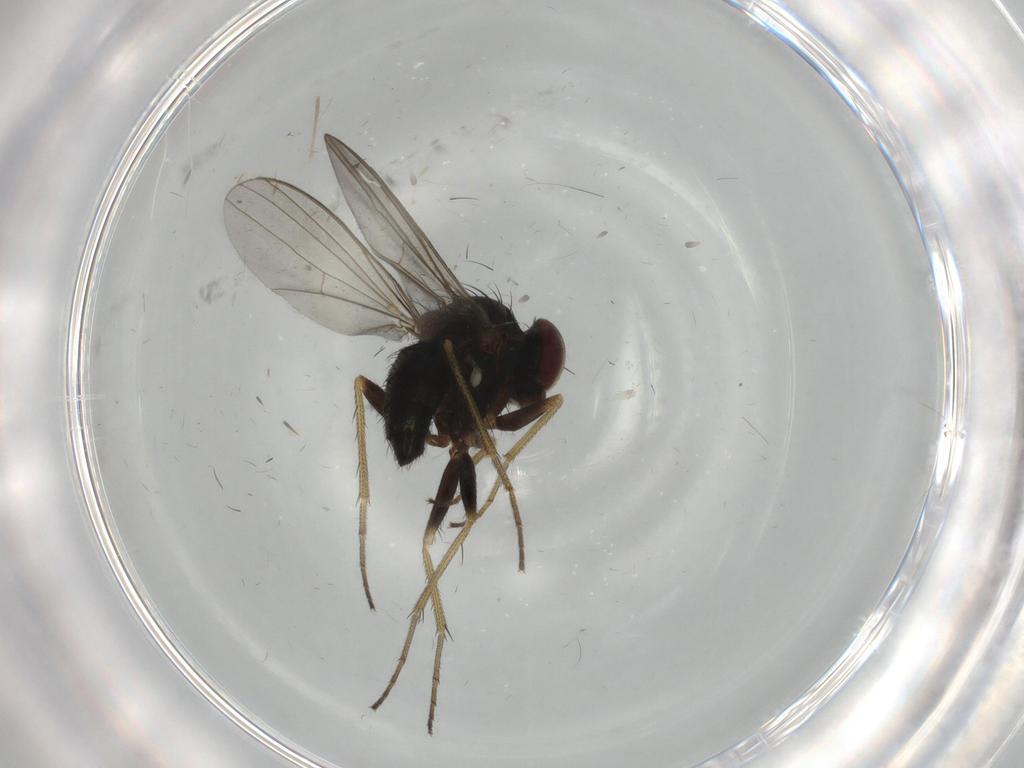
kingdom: Animalia
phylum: Arthropoda
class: Insecta
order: Diptera
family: Dolichopodidae
